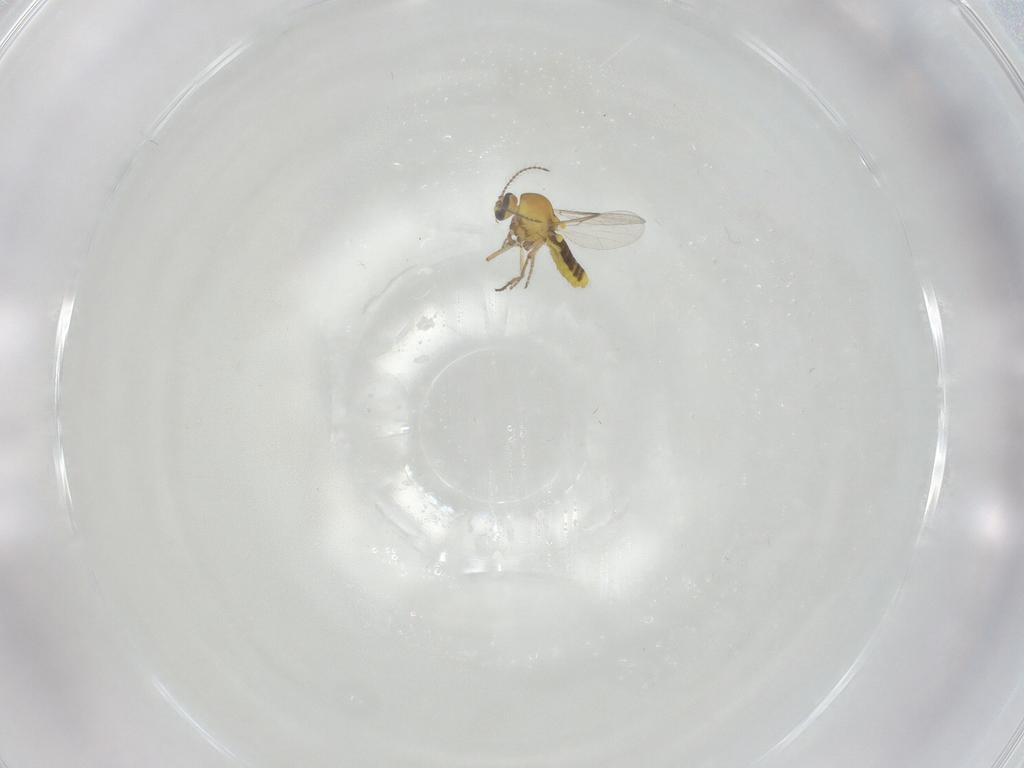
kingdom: Animalia
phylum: Arthropoda
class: Insecta
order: Diptera
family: Ceratopogonidae
